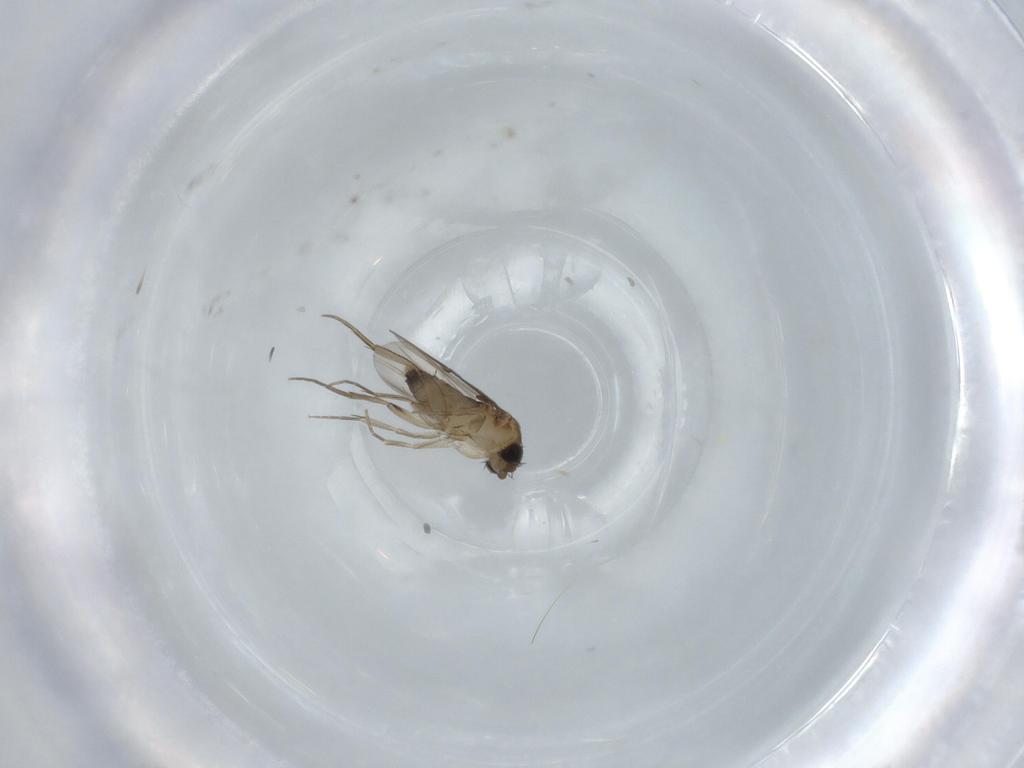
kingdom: Animalia
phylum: Arthropoda
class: Insecta
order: Diptera
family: Phoridae
